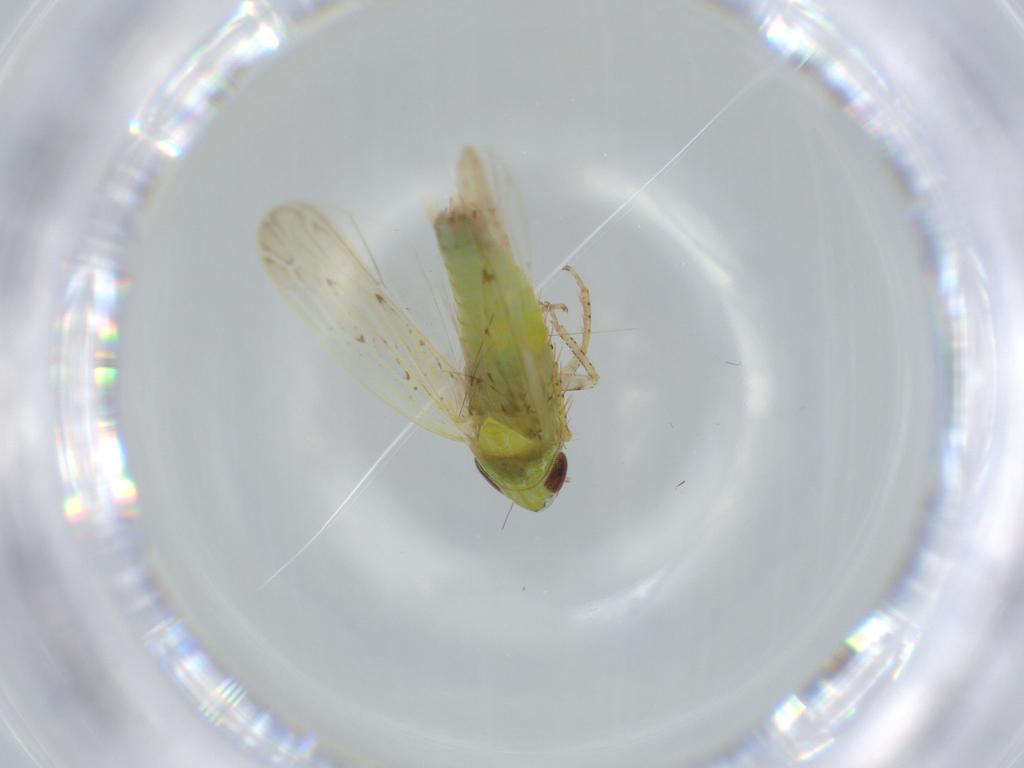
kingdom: Animalia
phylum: Arthropoda
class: Insecta
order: Hemiptera
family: Cicadellidae
